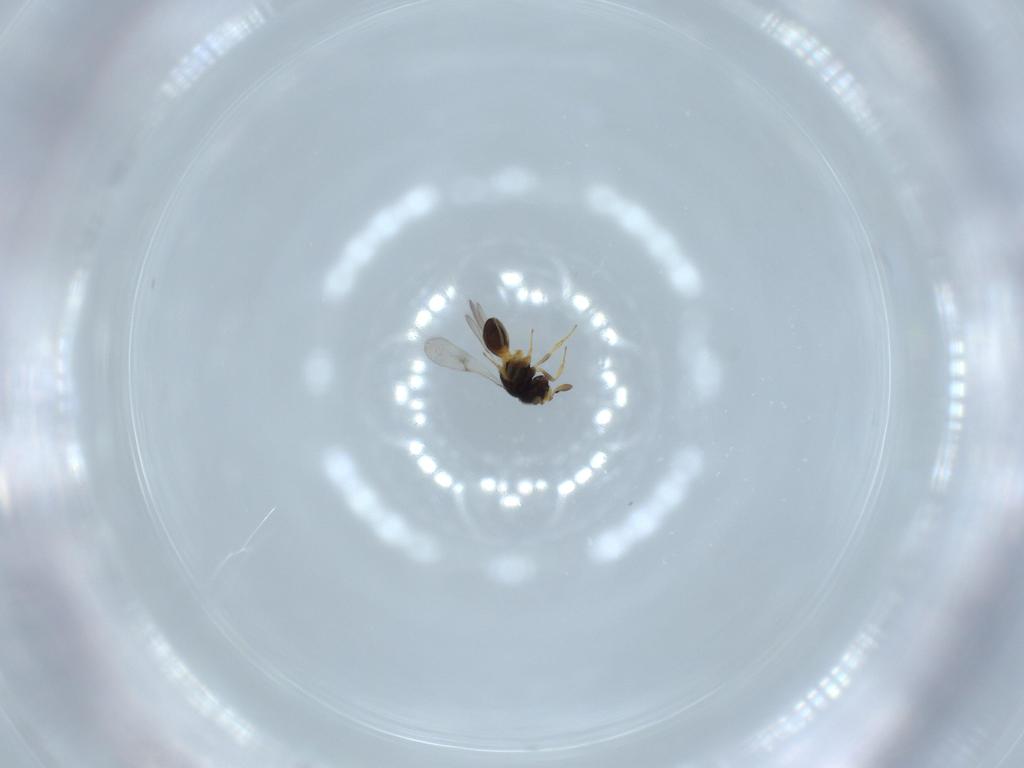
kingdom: Animalia
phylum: Arthropoda
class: Insecta
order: Hymenoptera
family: Scelionidae
